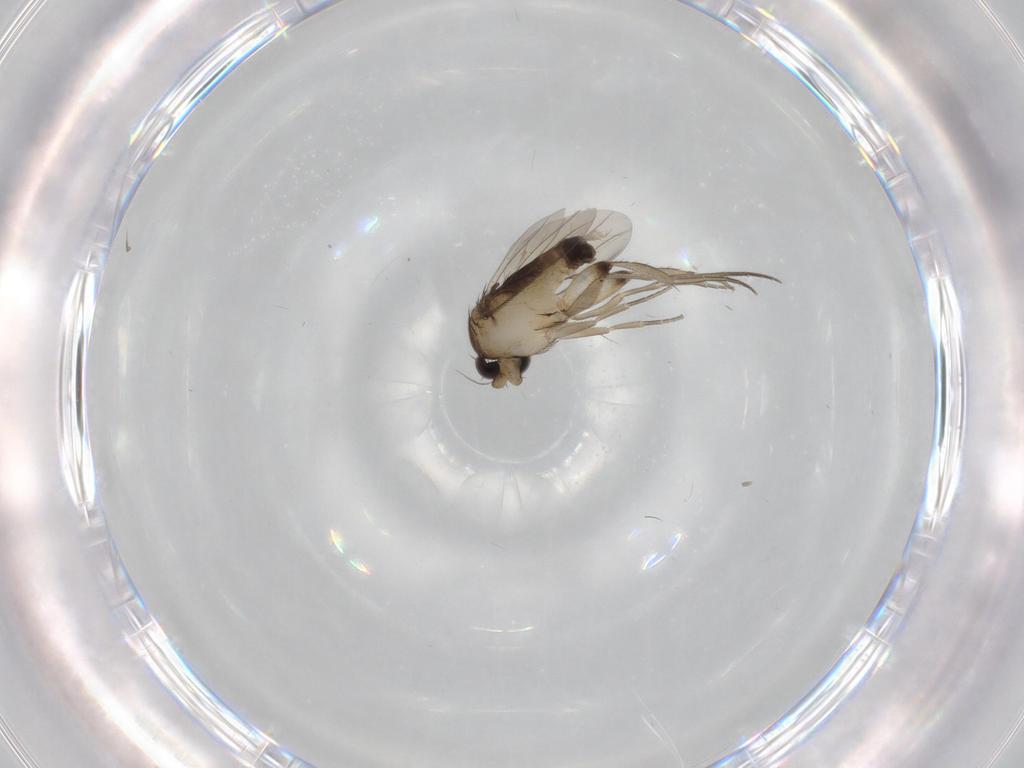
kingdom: Animalia
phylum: Arthropoda
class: Insecta
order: Diptera
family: Phoridae
